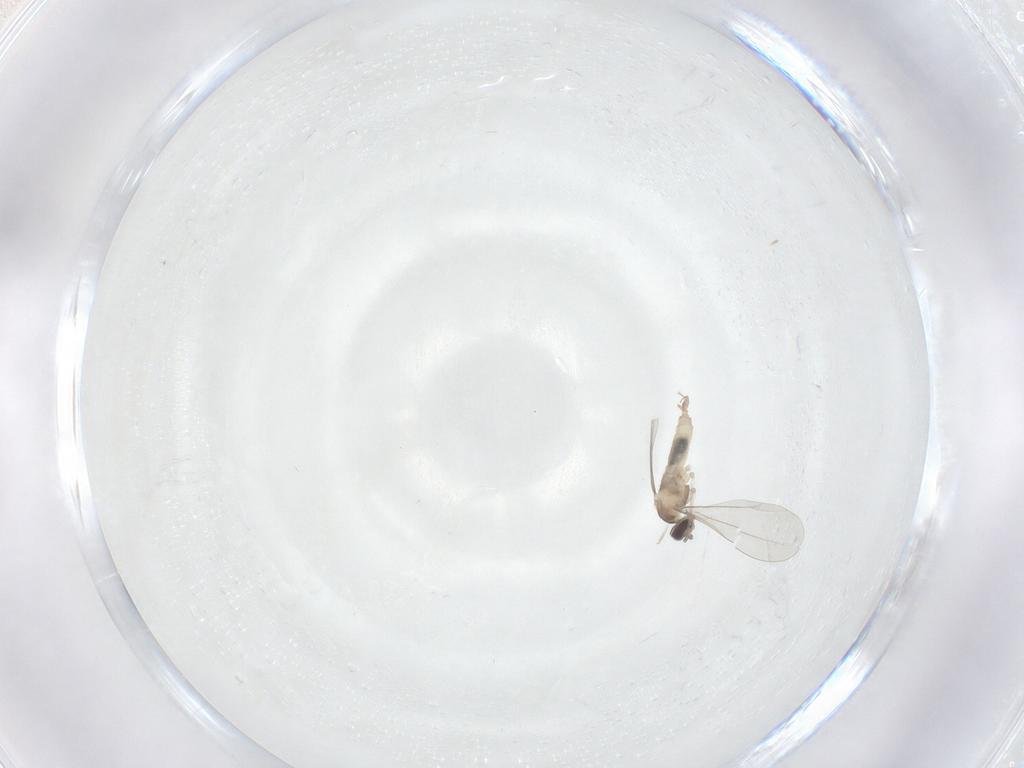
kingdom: Animalia
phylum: Arthropoda
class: Insecta
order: Diptera
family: Cecidomyiidae
